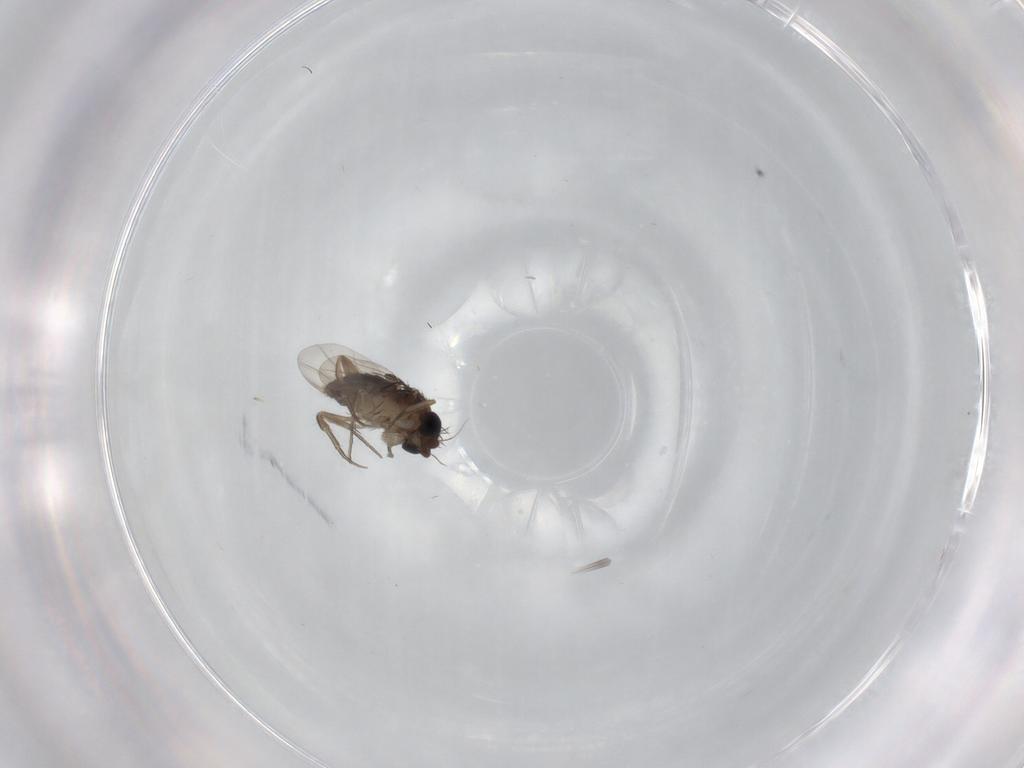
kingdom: Animalia
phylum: Arthropoda
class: Insecta
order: Diptera
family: Phoridae
